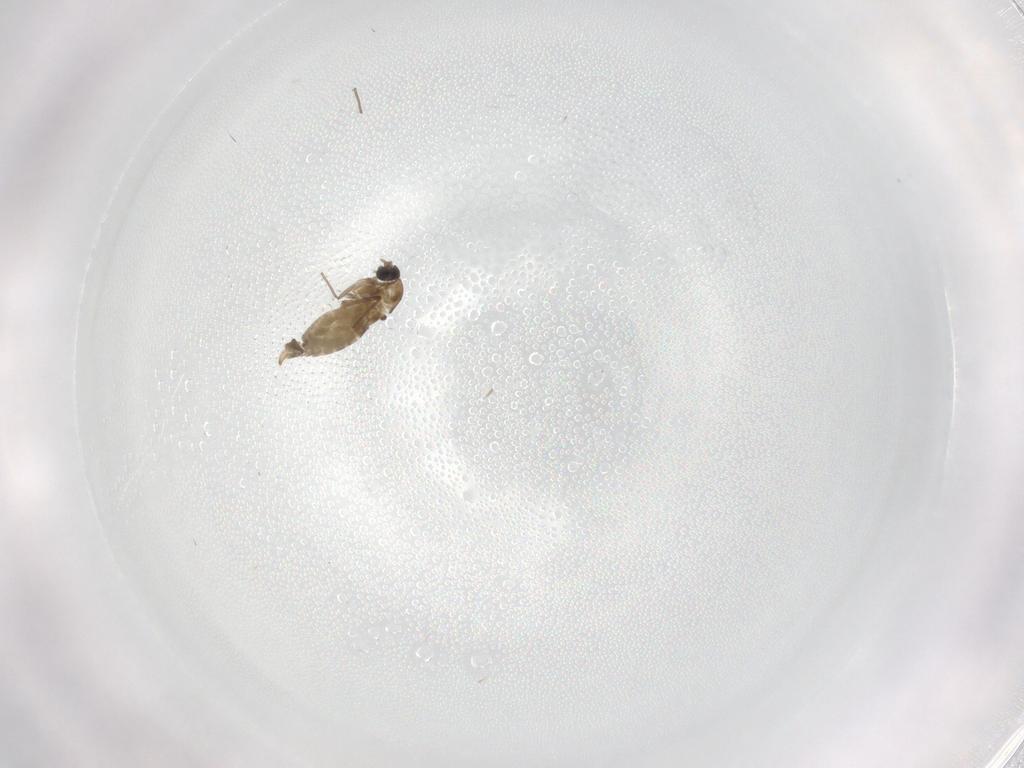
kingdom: Animalia
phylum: Arthropoda
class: Insecta
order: Diptera
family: Chironomidae
